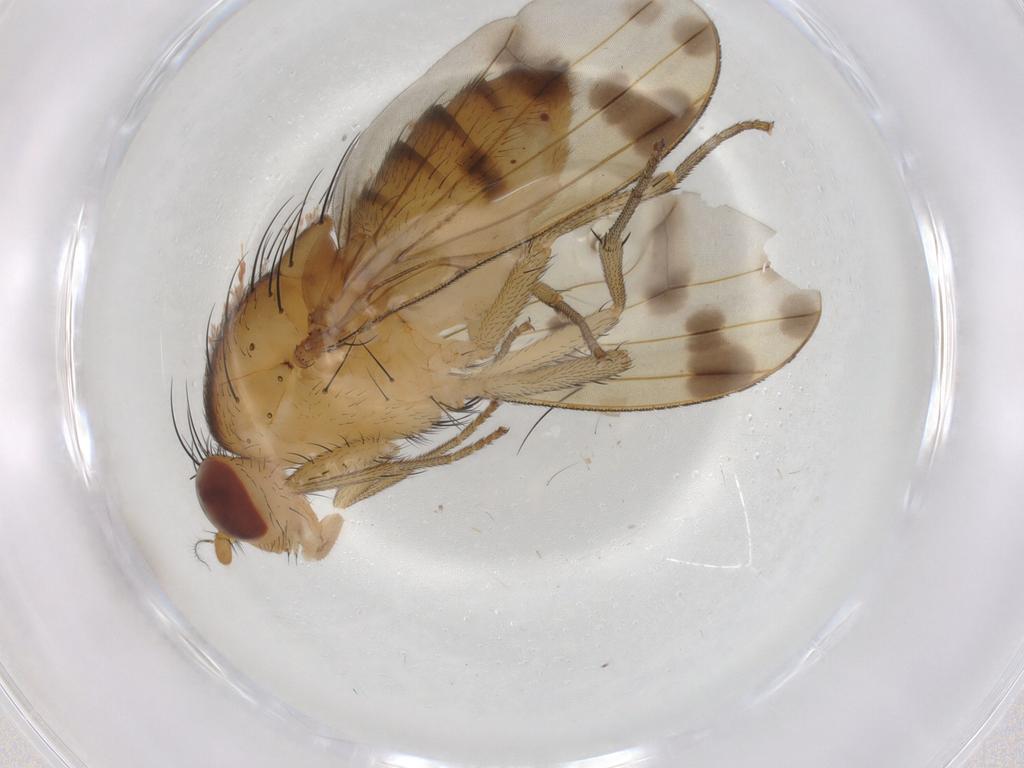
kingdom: Animalia
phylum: Arthropoda
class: Insecta
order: Diptera
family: Lauxaniidae
